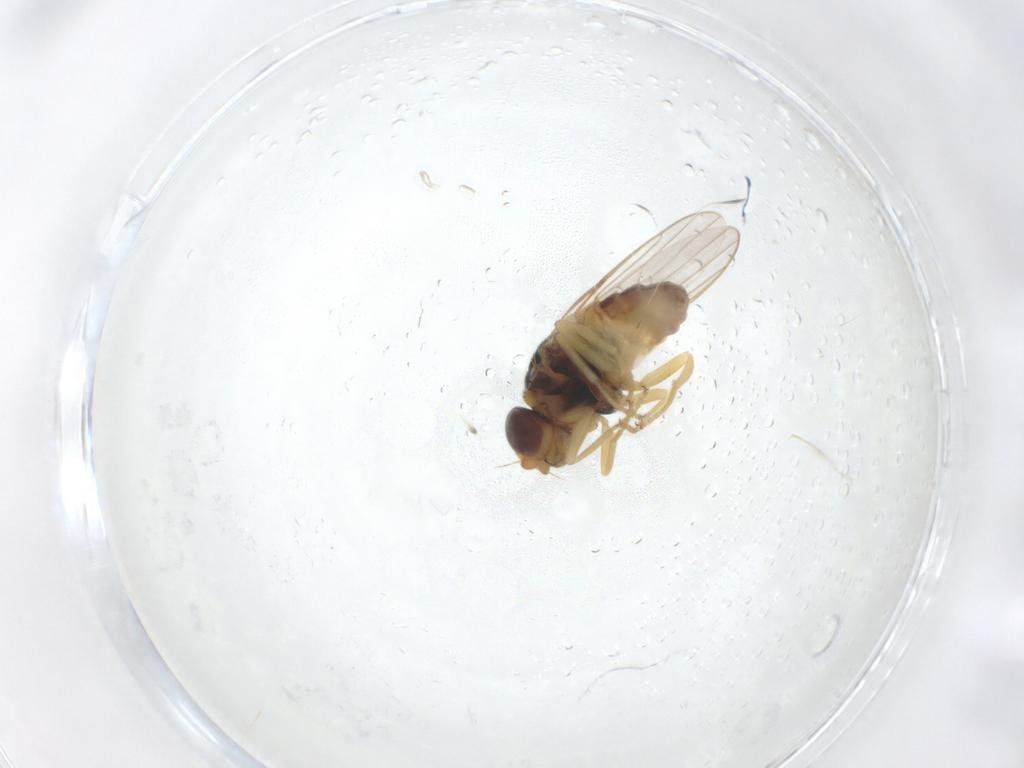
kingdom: Animalia
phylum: Arthropoda
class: Insecta
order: Diptera
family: Chloropidae
